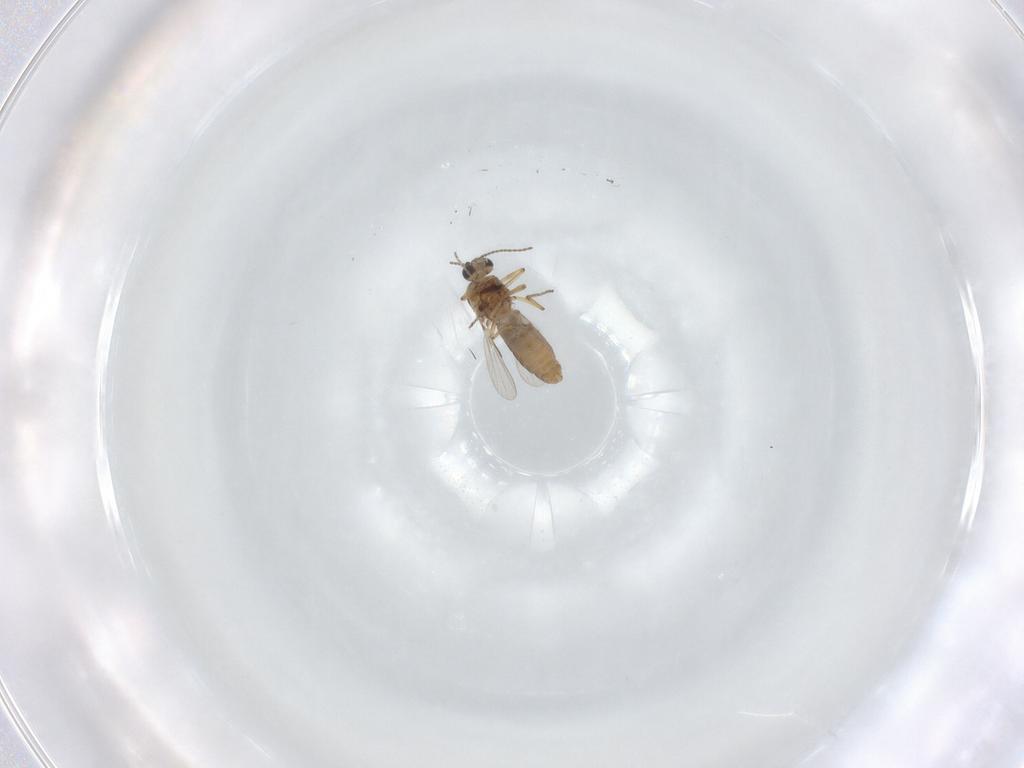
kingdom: Animalia
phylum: Arthropoda
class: Insecta
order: Diptera
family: Ceratopogonidae
